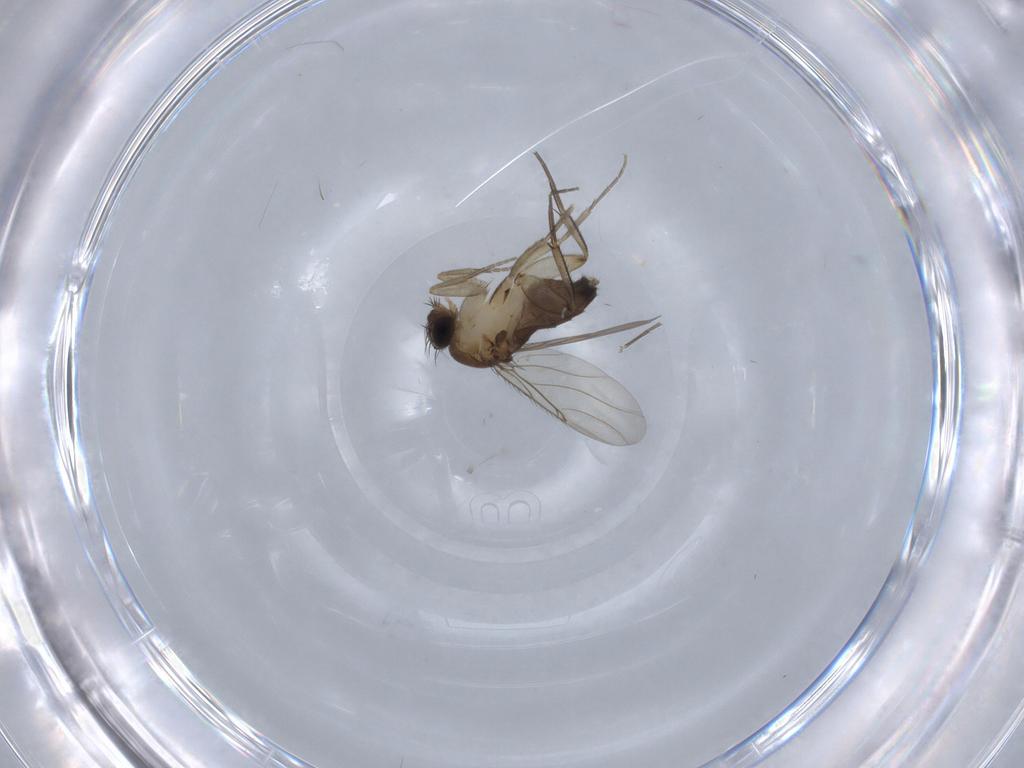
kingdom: Animalia
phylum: Arthropoda
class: Insecta
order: Diptera
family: Phoridae
